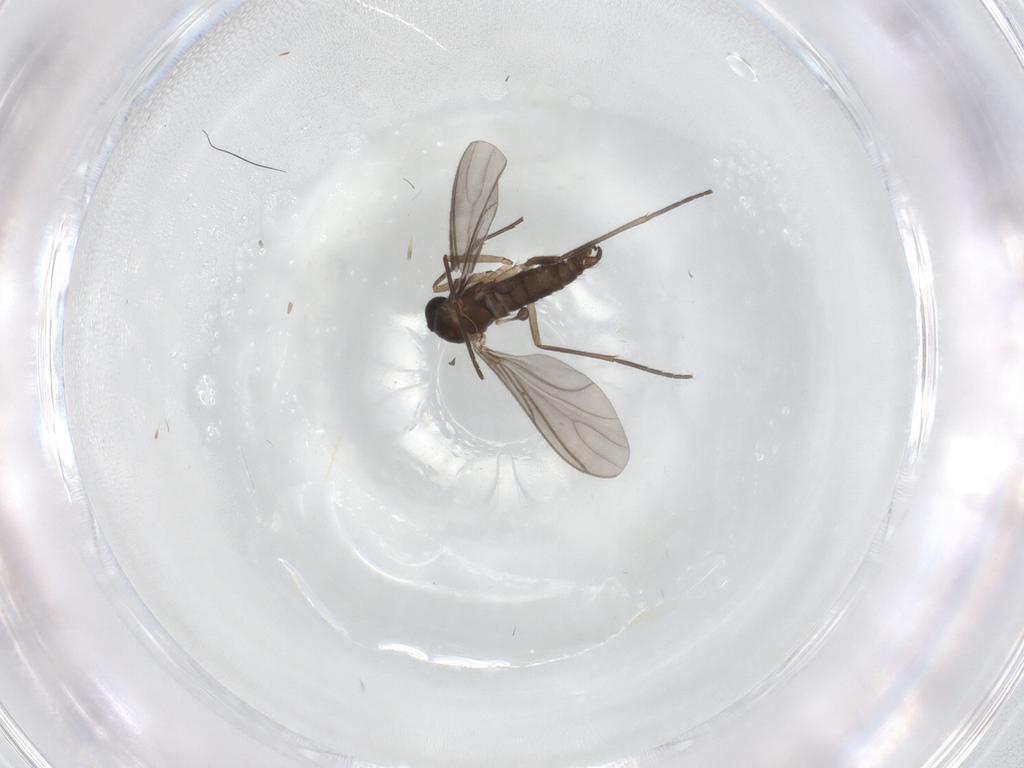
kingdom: Animalia
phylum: Arthropoda
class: Insecta
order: Diptera
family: Sciaridae
